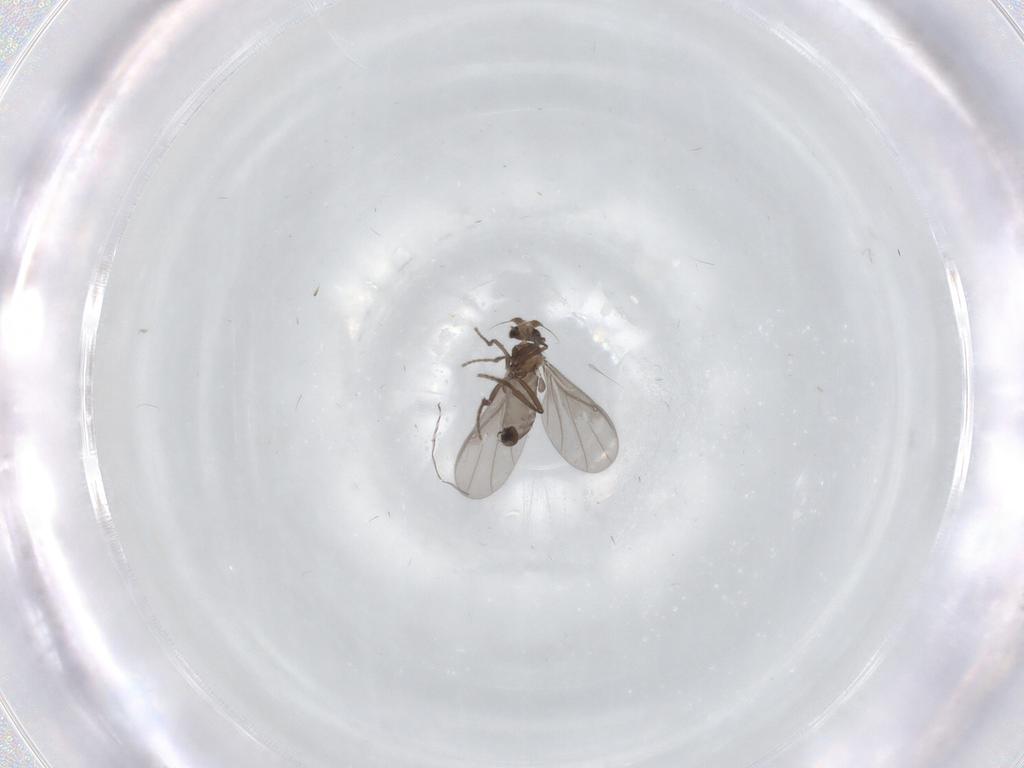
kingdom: Animalia
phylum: Arthropoda
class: Insecta
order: Diptera
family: Phoridae
